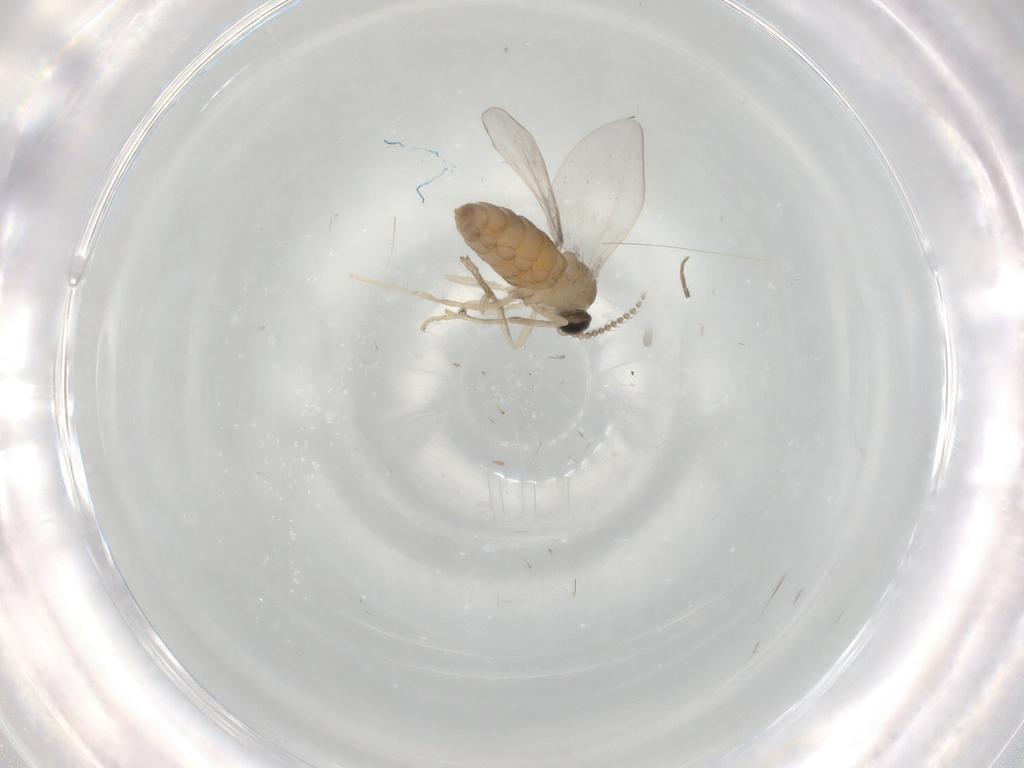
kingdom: Animalia
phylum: Arthropoda
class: Insecta
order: Diptera
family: Cecidomyiidae
